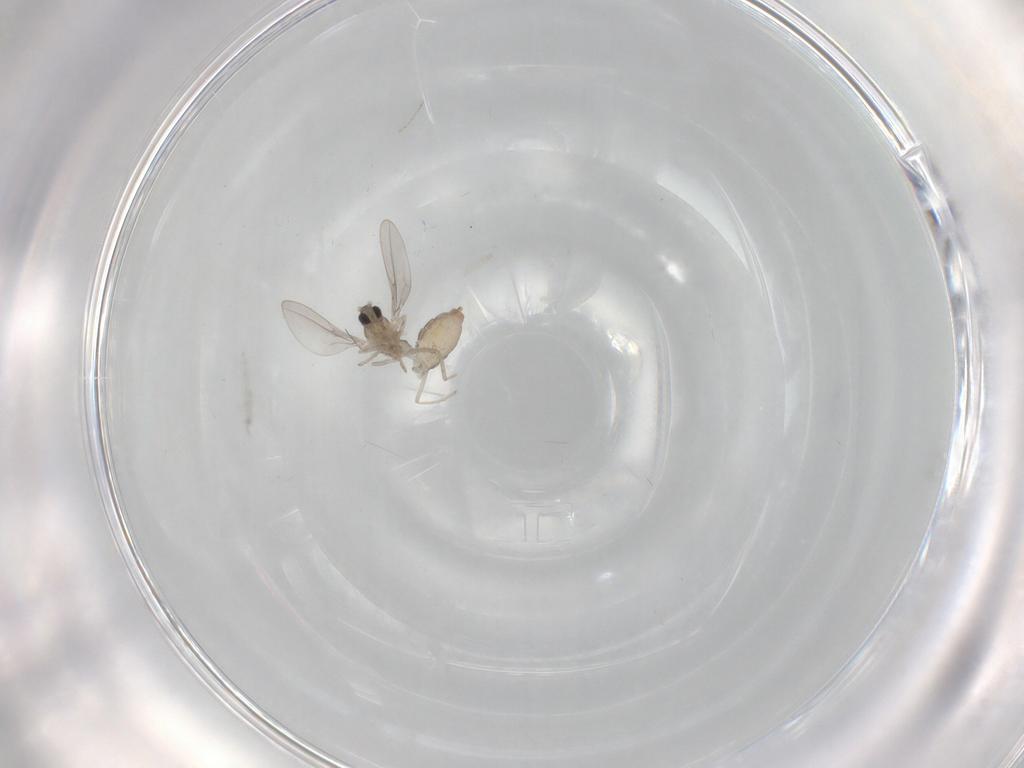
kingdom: Animalia
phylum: Arthropoda
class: Insecta
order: Diptera
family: Cecidomyiidae
